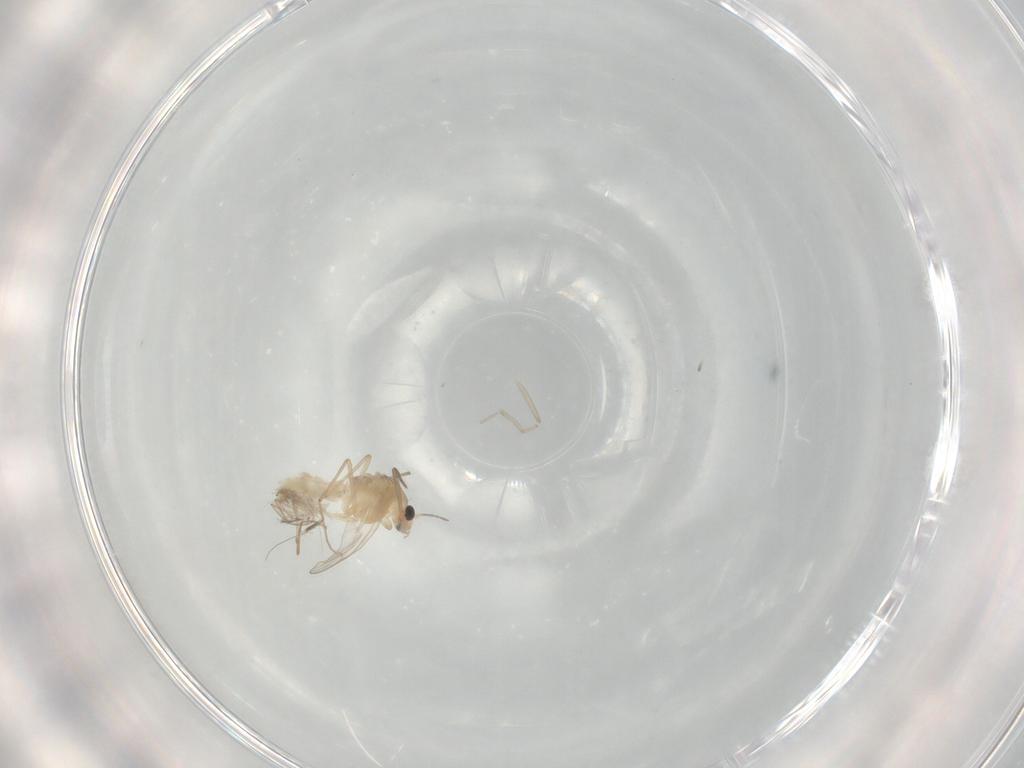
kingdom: Animalia
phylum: Arthropoda
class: Insecta
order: Diptera
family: Chironomidae
